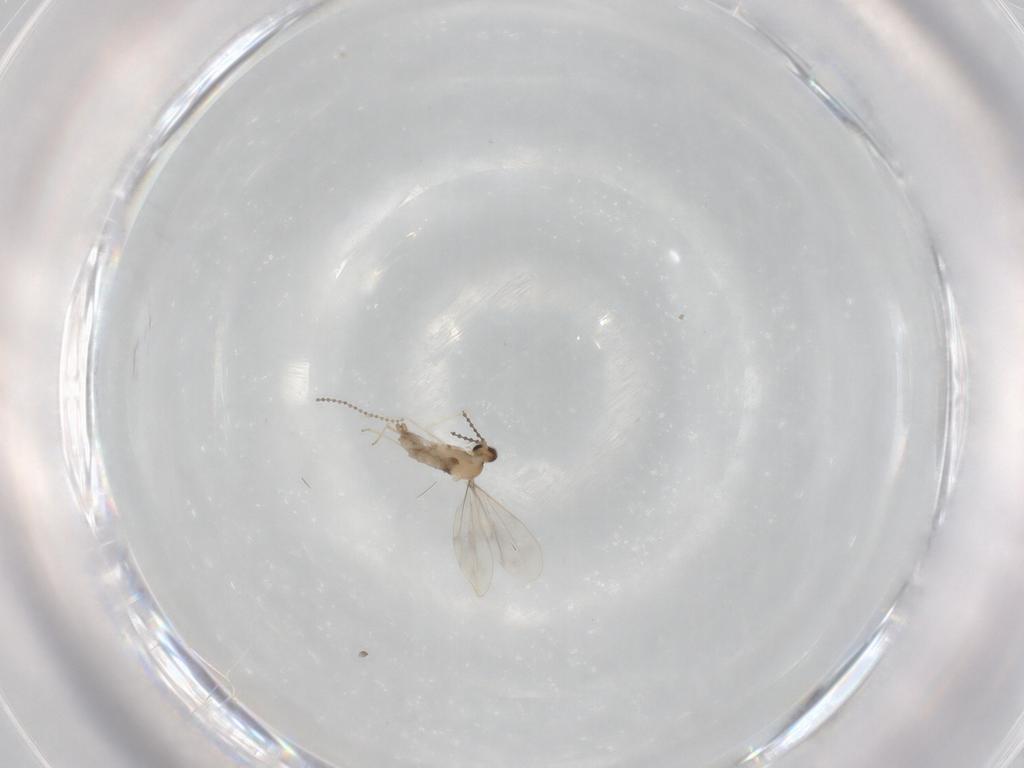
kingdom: Animalia
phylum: Arthropoda
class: Insecta
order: Diptera
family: Cecidomyiidae
